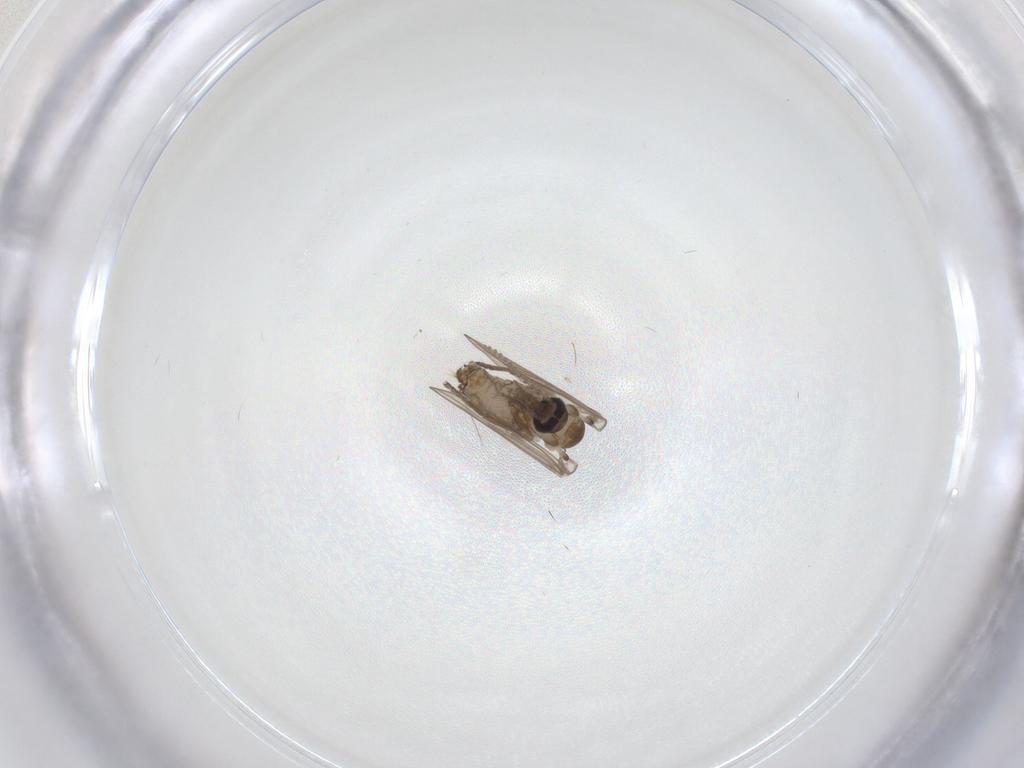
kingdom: Animalia
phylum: Arthropoda
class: Insecta
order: Diptera
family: Psychodidae
